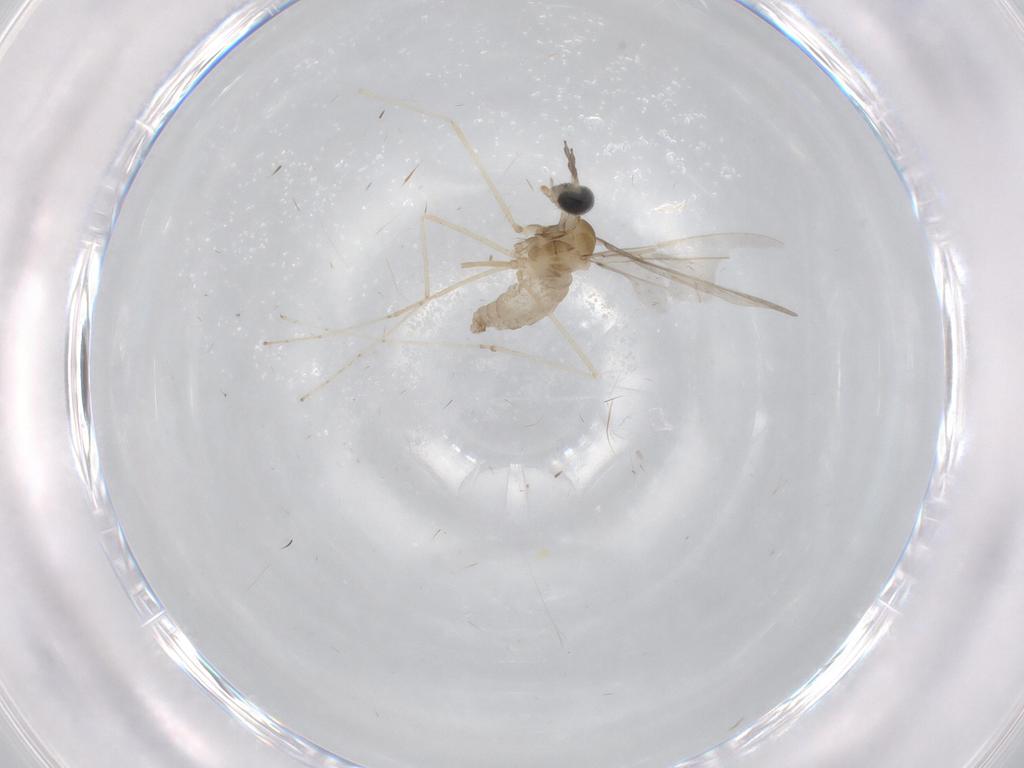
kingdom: Animalia
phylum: Arthropoda
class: Insecta
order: Diptera
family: Cecidomyiidae
